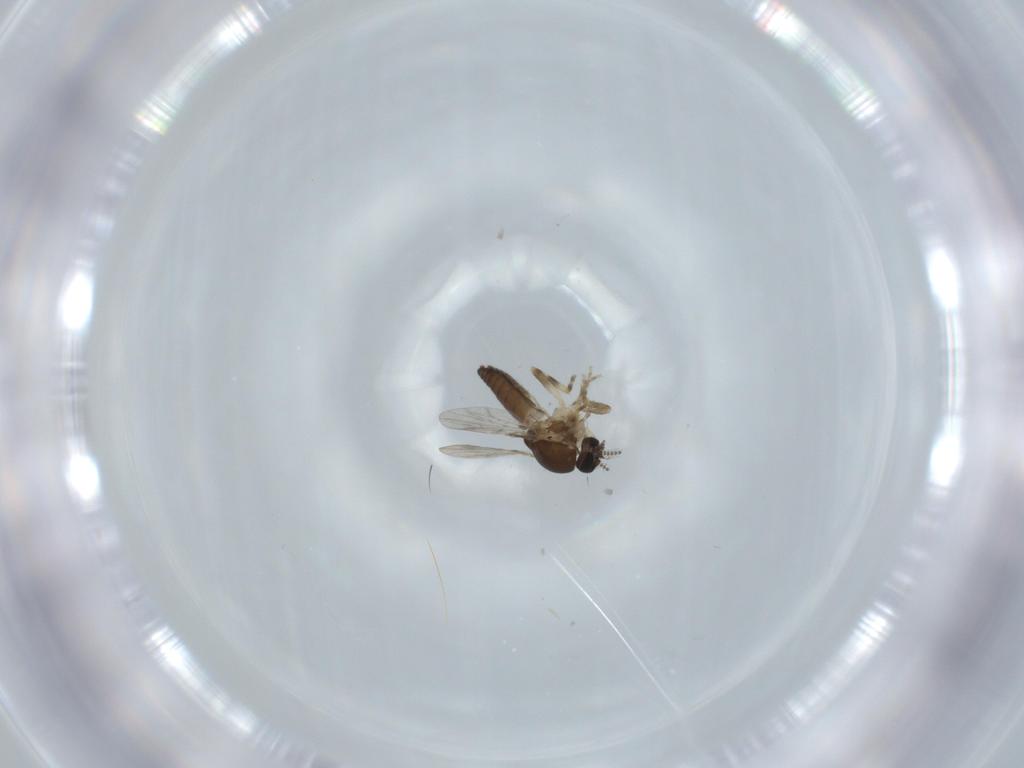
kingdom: Animalia
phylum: Arthropoda
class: Insecta
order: Diptera
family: Ceratopogonidae
